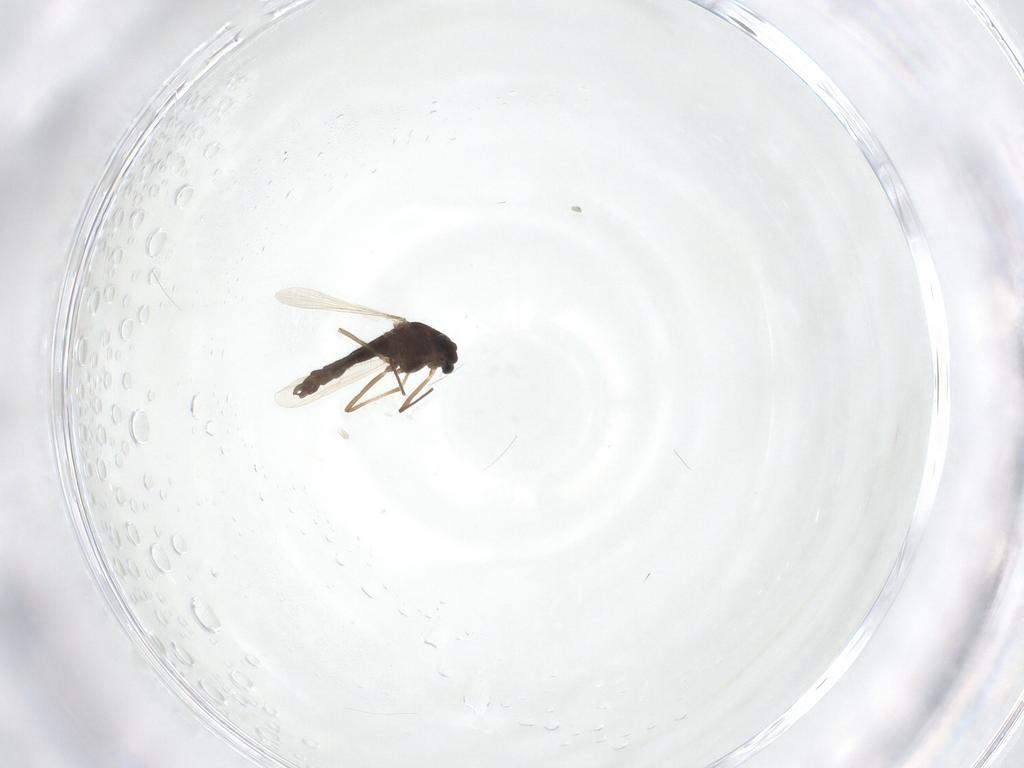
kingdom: Animalia
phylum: Arthropoda
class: Insecta
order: Diptera
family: Chironomidae
